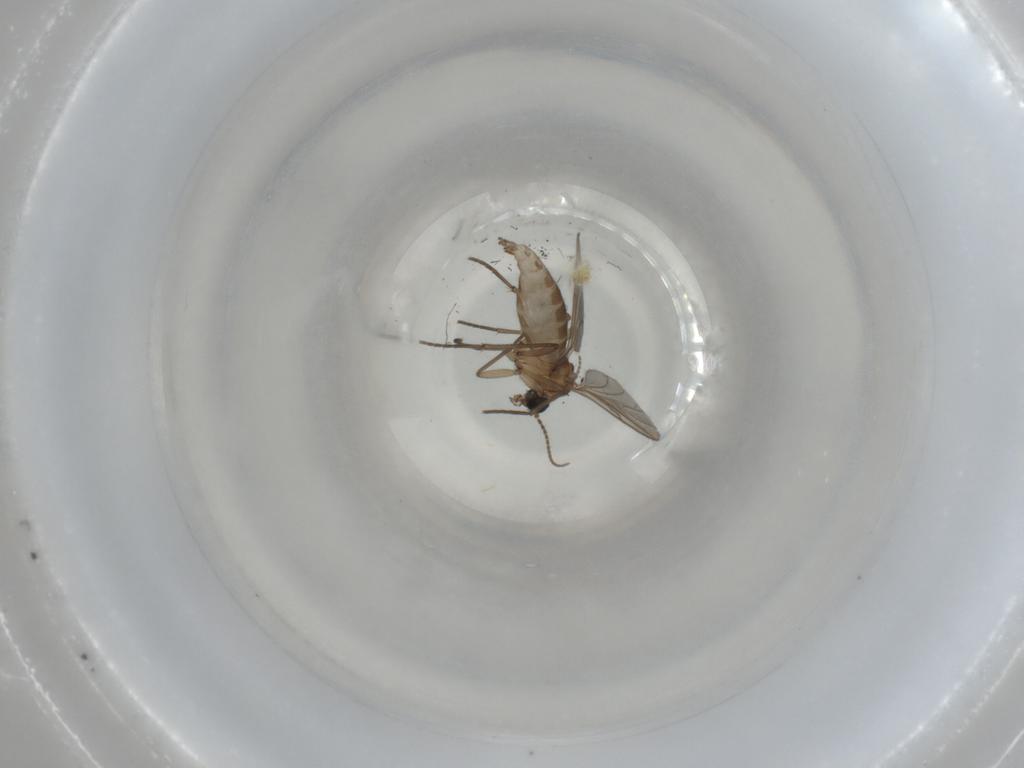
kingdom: Animalia
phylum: Arthropoda
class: Insecta
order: Diptera
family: Sciaridae
